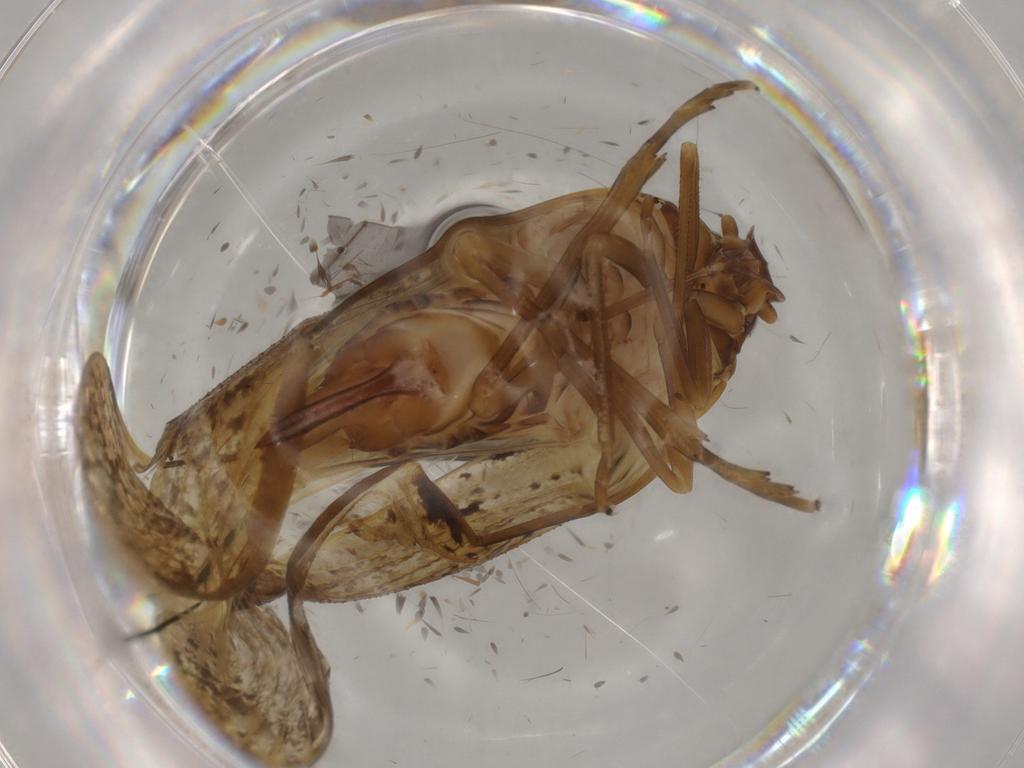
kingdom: Animalia
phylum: Arthropoda
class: Insecta
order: Hemiptera
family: Cixiidae
